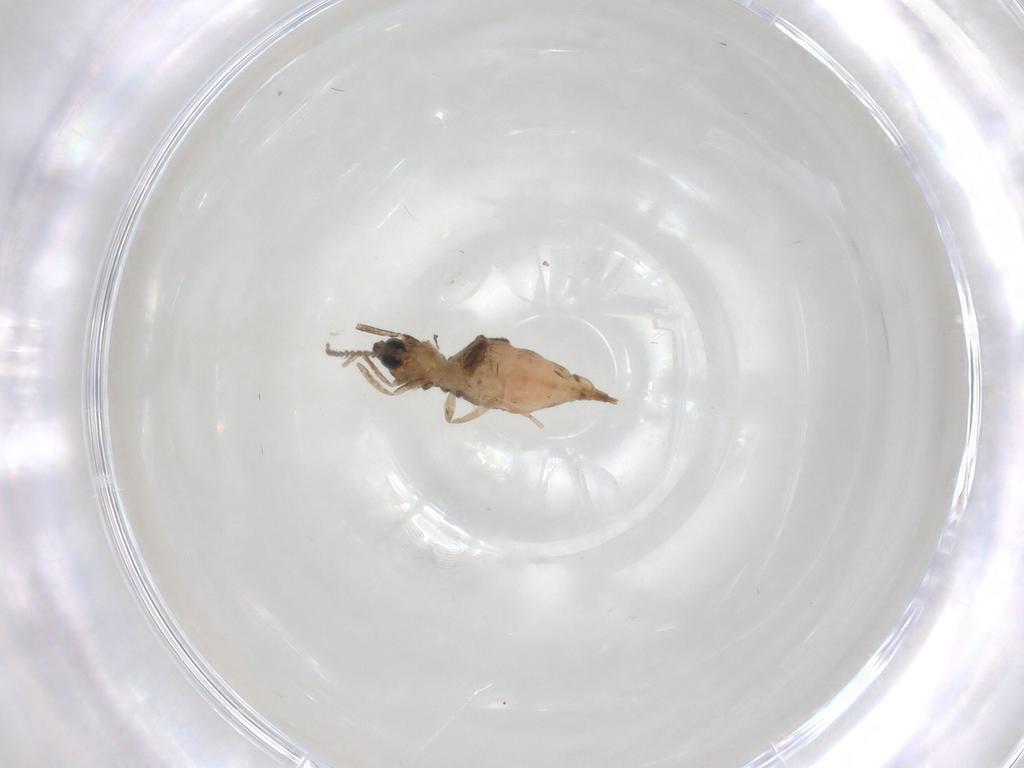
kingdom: Animalia
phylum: Arthropoda
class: Insecta
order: Diptera
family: Cecidomyiidae
